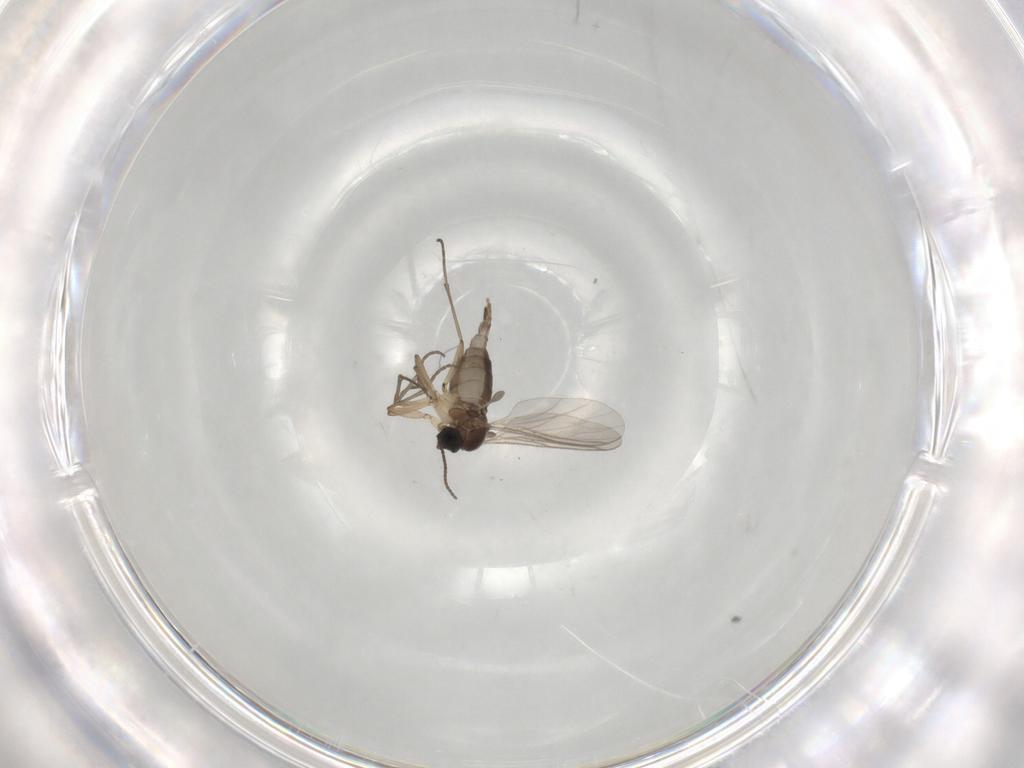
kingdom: Animalia
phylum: Arthropoda
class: Insecta
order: Diptera
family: Sciaridae
